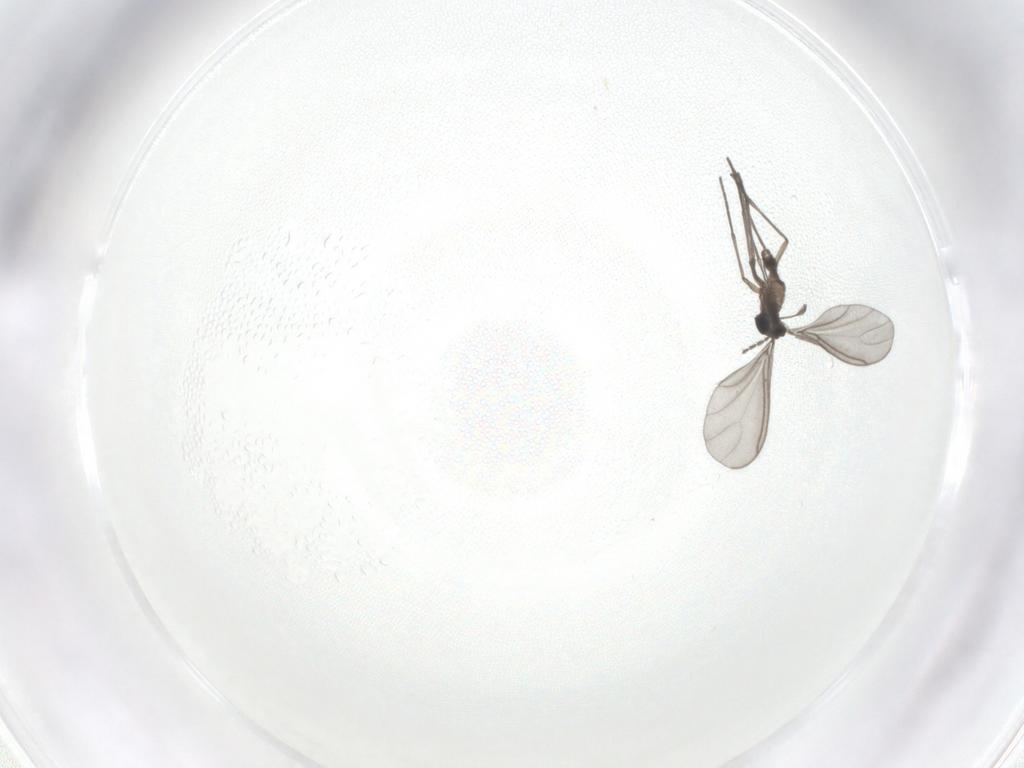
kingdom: Animalia
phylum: Arthropoda
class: Insecta
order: Diptera
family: Sciaridae
